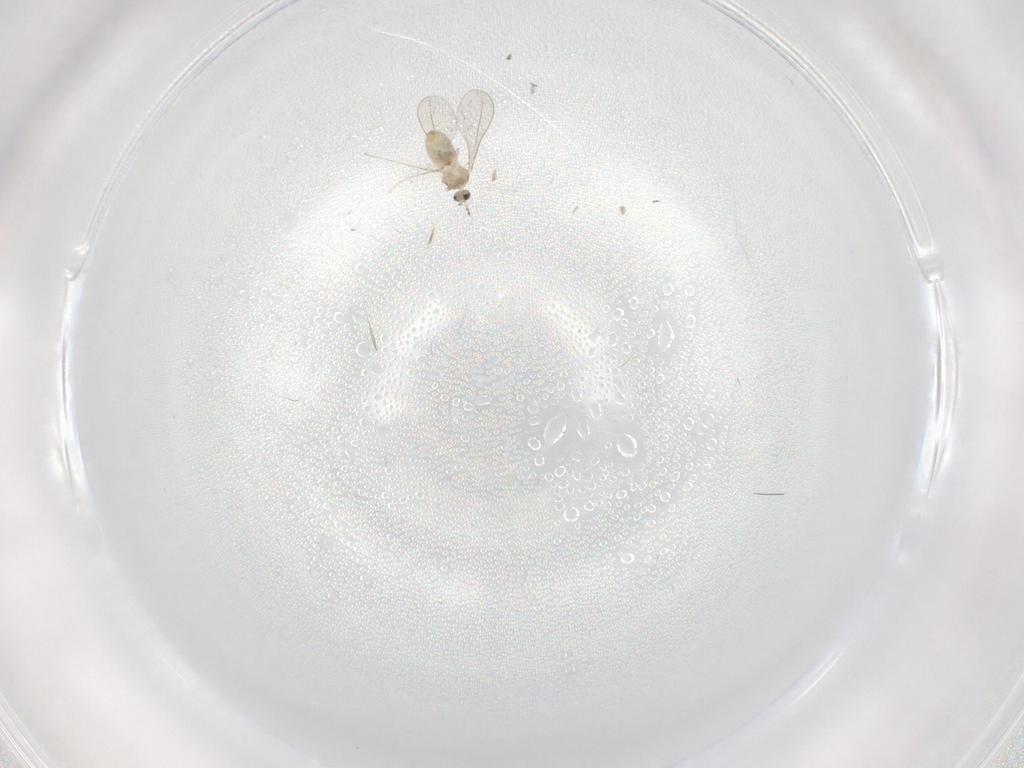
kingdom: Animalia
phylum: Arthropoda
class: Insecta
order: Diptera
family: Cecidomyiidae
